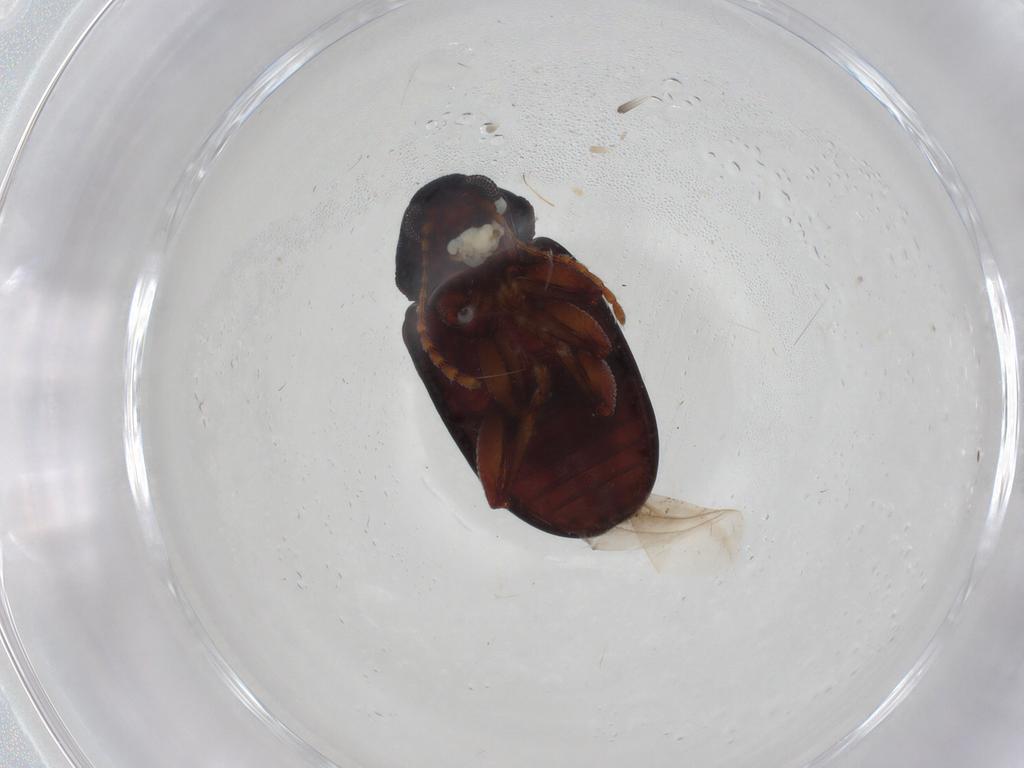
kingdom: Animalia
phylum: Arthropoda
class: Insecta
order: Coleoptera
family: Chrysomelidae
